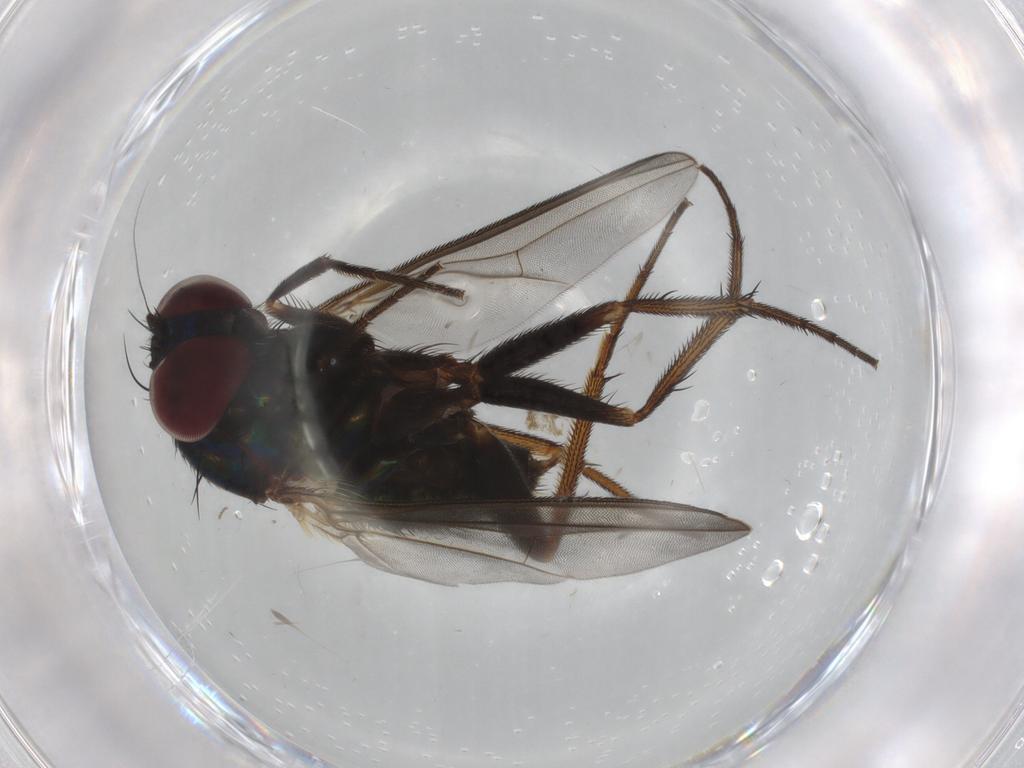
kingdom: Animalia
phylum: Arthropoda
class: Insecta
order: Diptera
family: Dolichopodidae
